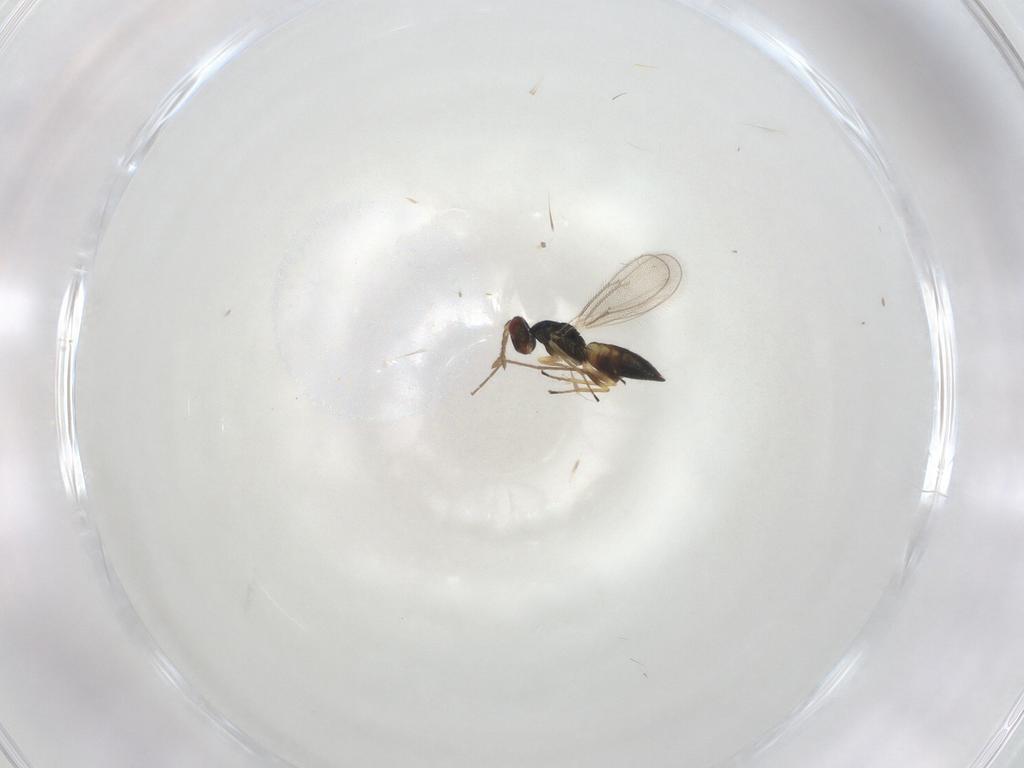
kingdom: Animalia
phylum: Arthropoda
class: Insecta
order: Hymenoptera
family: Eulophidae
